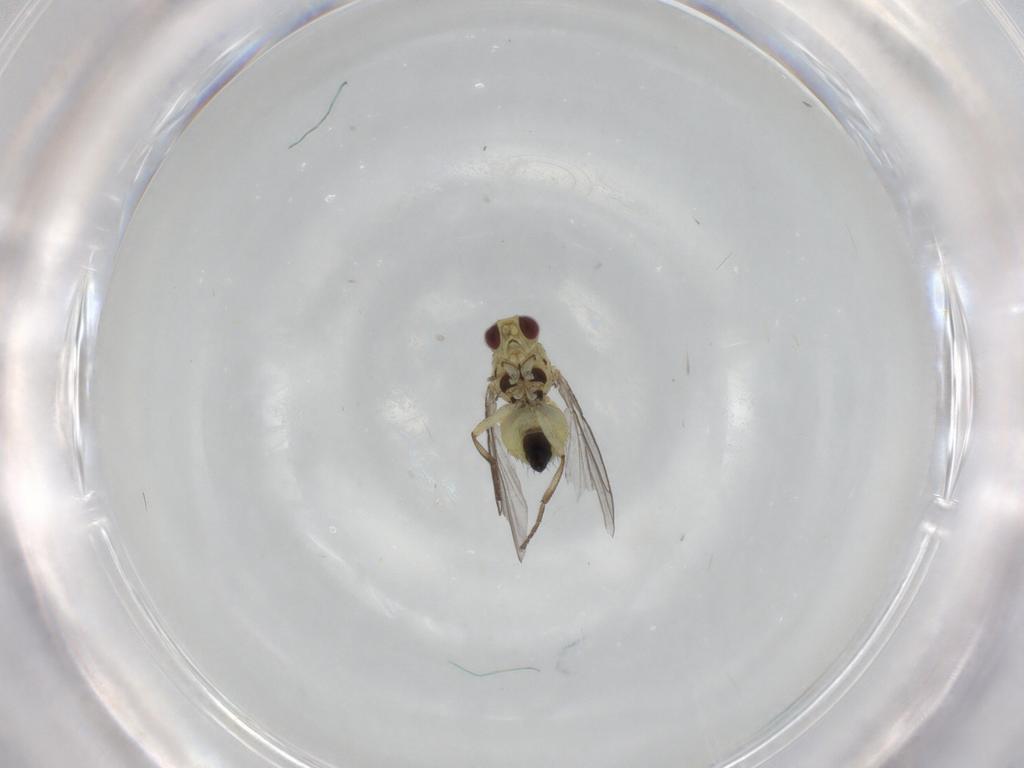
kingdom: Animalia
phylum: Arthropoda
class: Insecta
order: Diptera
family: Agromyzidae
